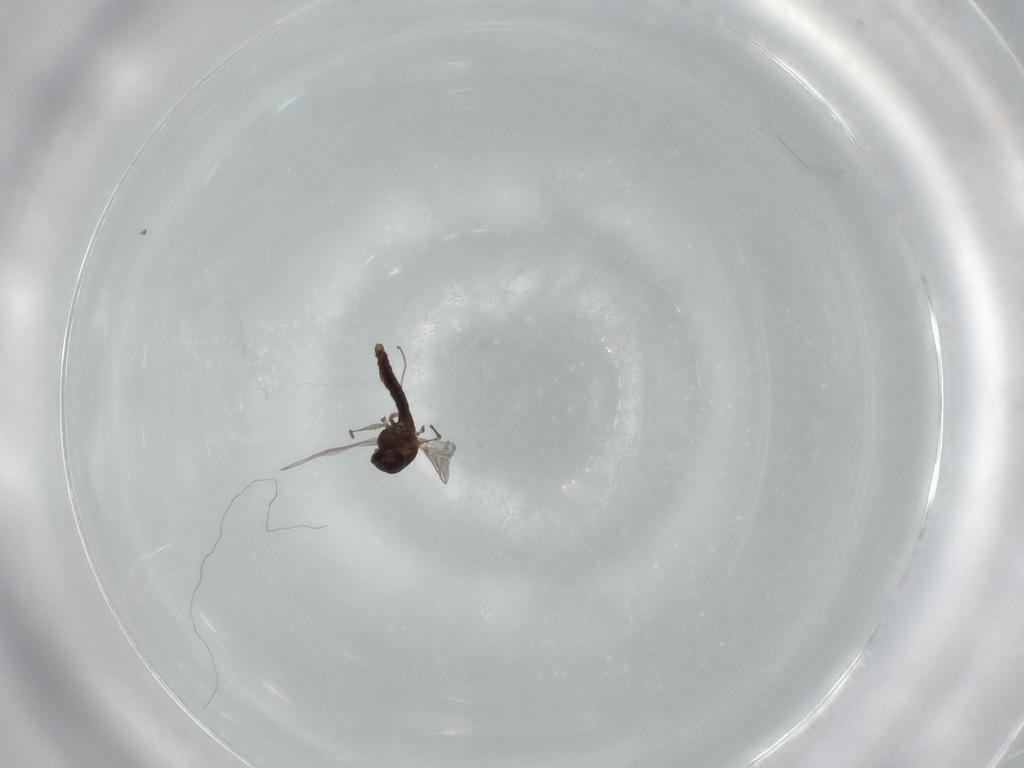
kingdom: Animalia
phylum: Arthropoda
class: Insecta
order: Diptera
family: Chironomidae
